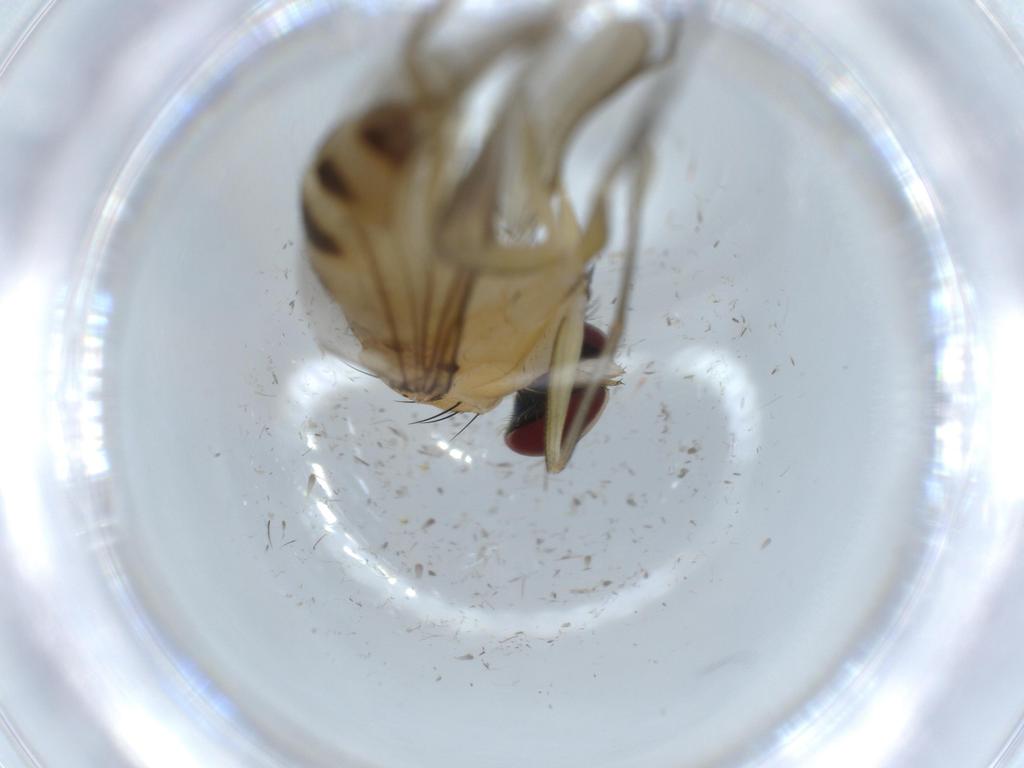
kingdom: Animalia
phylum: Arthropoda
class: Insecta
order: Diptera
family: Dolichopodidae
